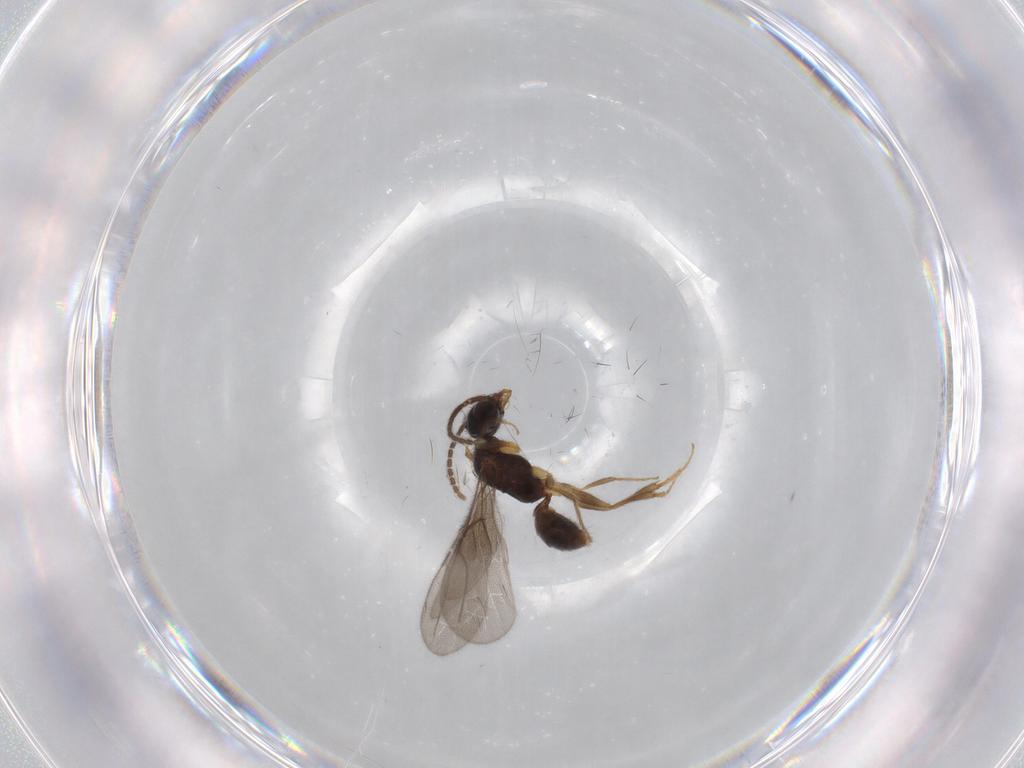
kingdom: Animalia
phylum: Arthropoda
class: Insecta
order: Hymenoptera
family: Bethylidae
